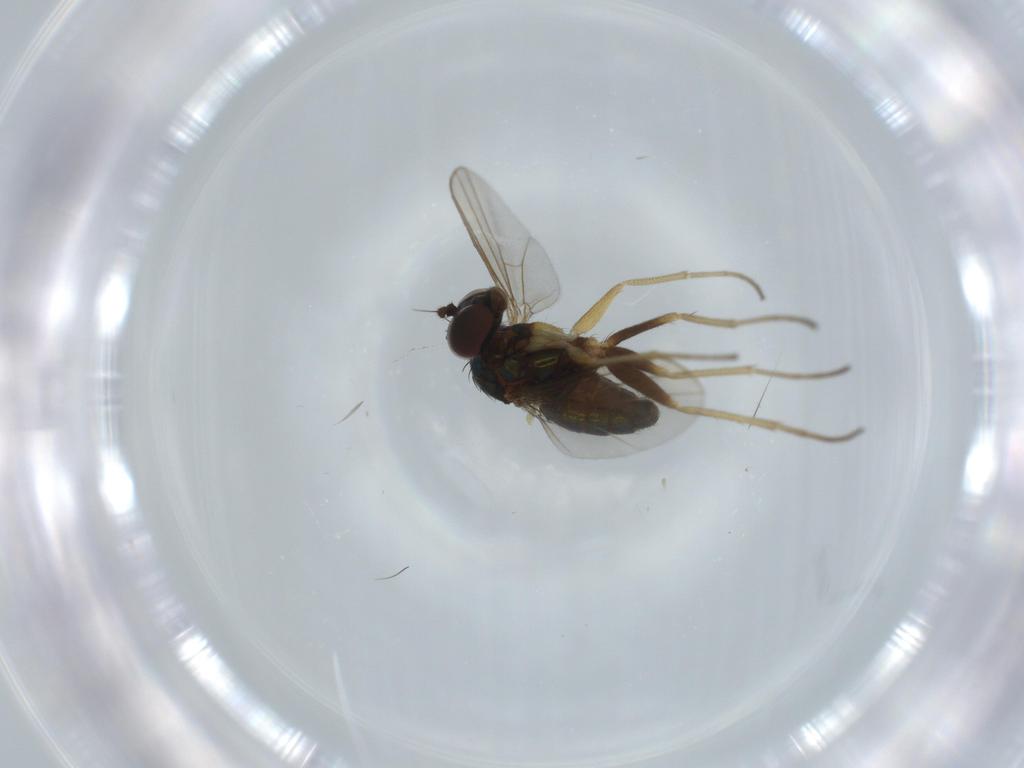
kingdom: Animalia
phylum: Arthropoda
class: Insecta
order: Diptera
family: Dolichopodidae
